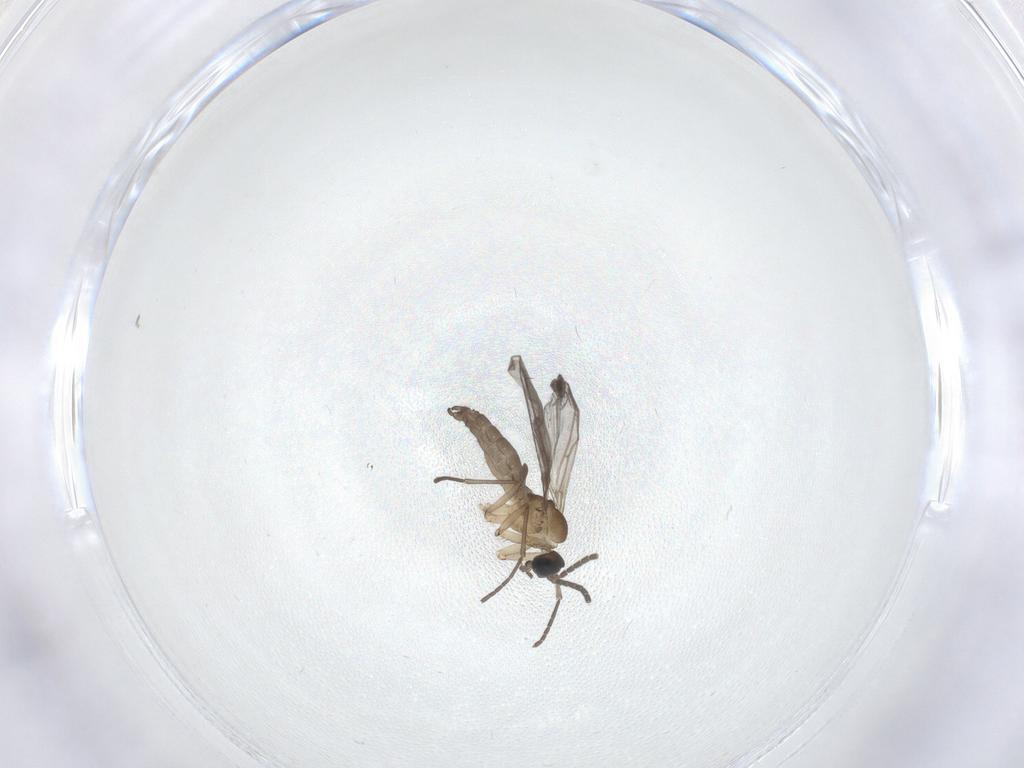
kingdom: Animalia
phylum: Arthropoda
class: Insecta
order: Diptera
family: Sciaridae
